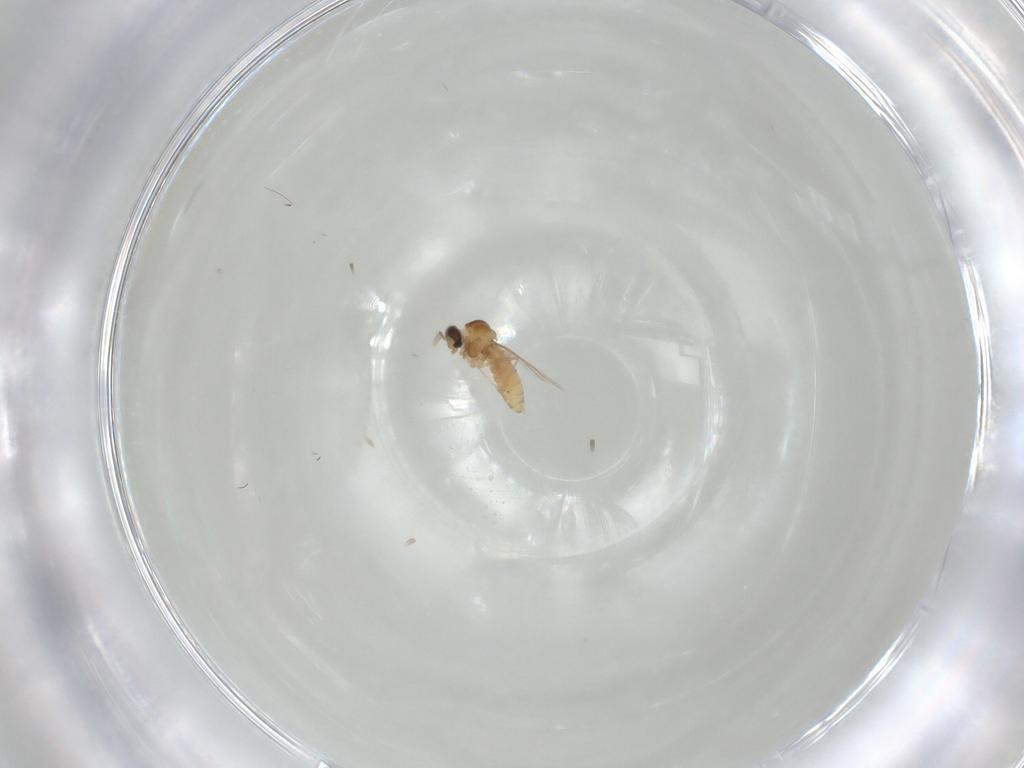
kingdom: Animalia
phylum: Arthropoda
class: Insecta
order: Diptera
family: Cecidomyiidae
